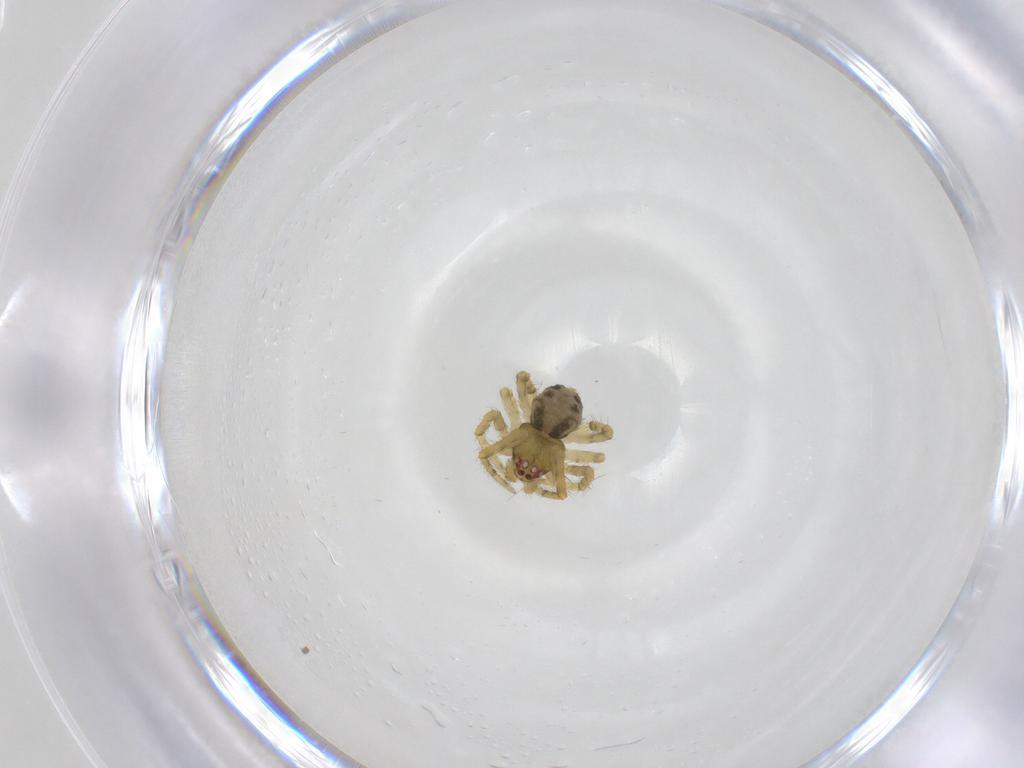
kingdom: Animalia
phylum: Arthropoda
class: Arachnida
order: Araneae
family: Theridiidae
